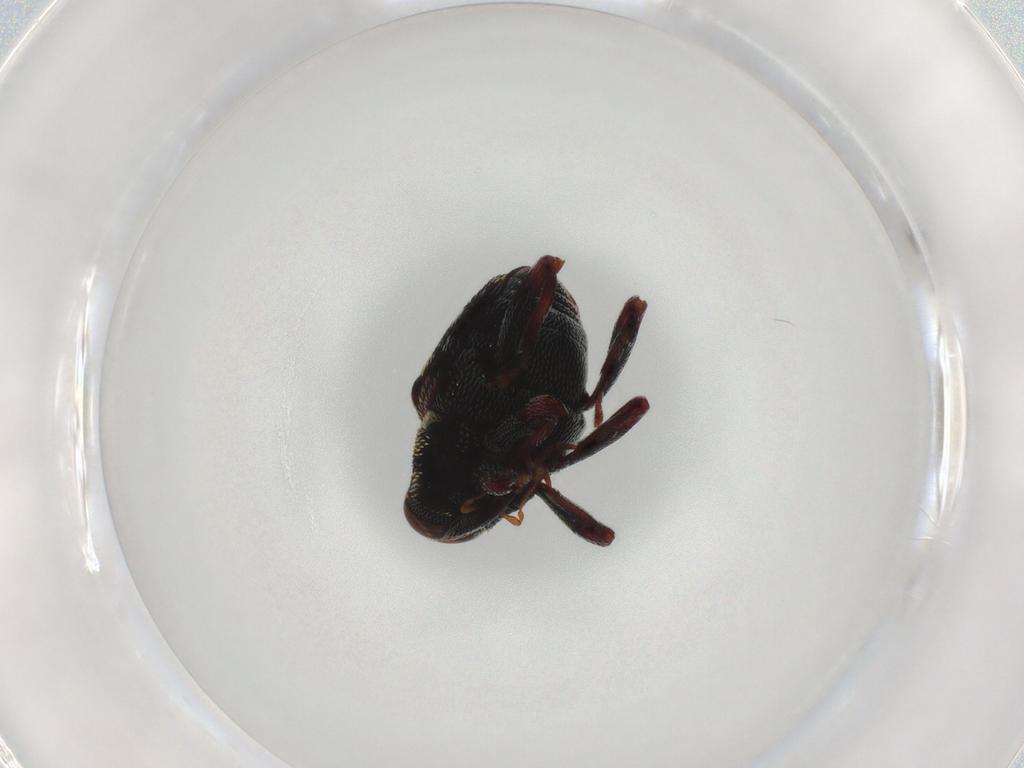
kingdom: Animalia
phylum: Arthropoda
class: Insecta
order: Coleoptera
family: Curculionidae
